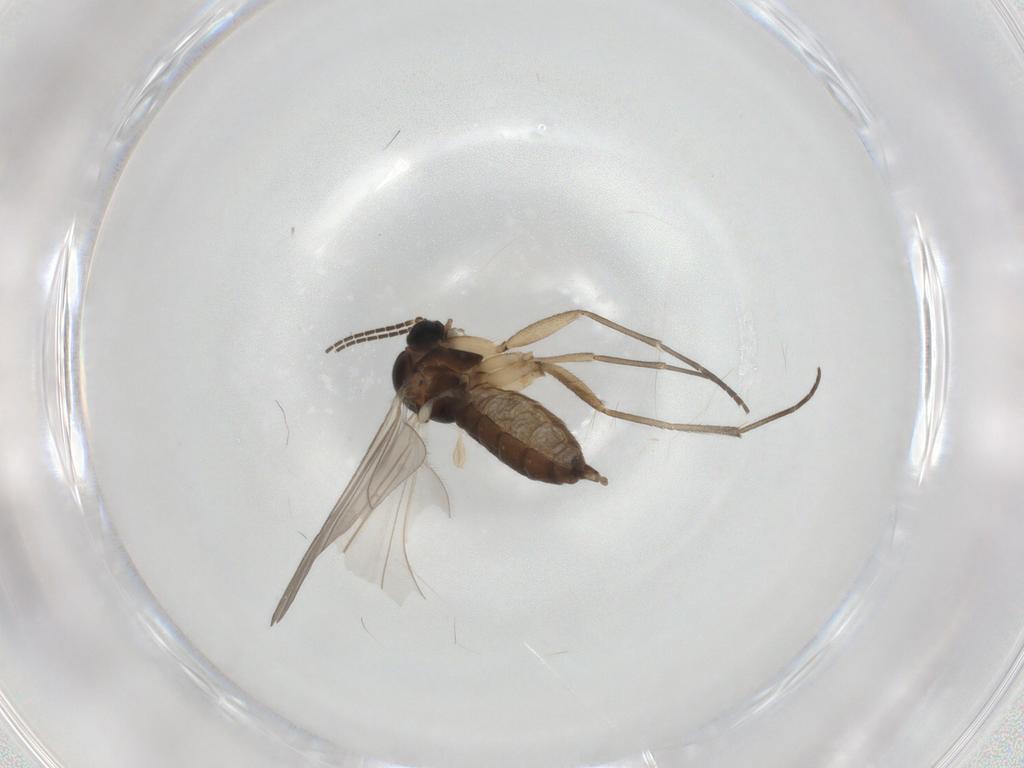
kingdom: Animalia
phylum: Arthropoda
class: Insecta
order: Diptera
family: Sciaridae
